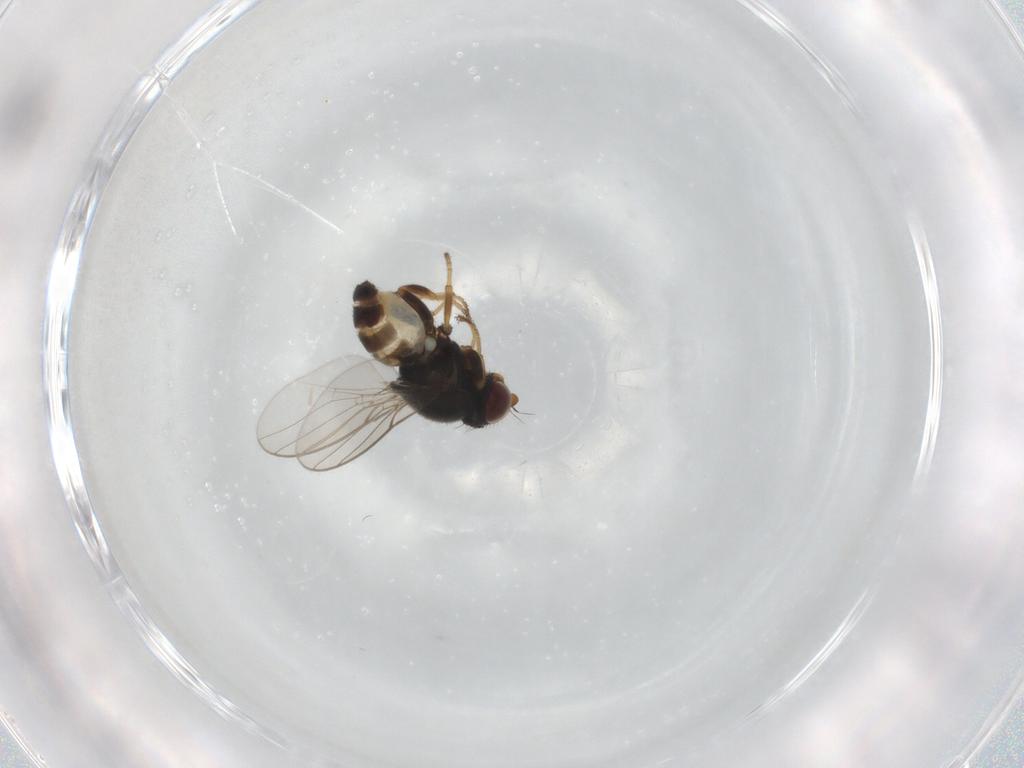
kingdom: Animalia
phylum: Arthropoda
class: Insecta
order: Diptera
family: Chloropidae
